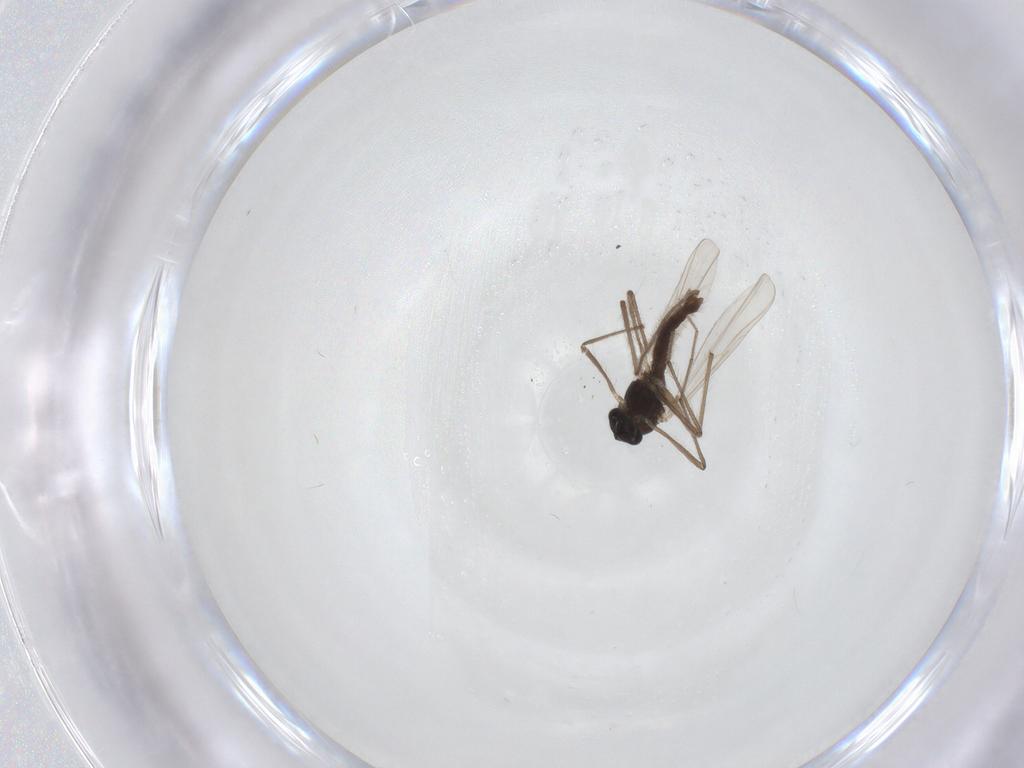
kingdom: Animalia
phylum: Arthropoda
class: Insecta
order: Diptera
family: Chironomidae
